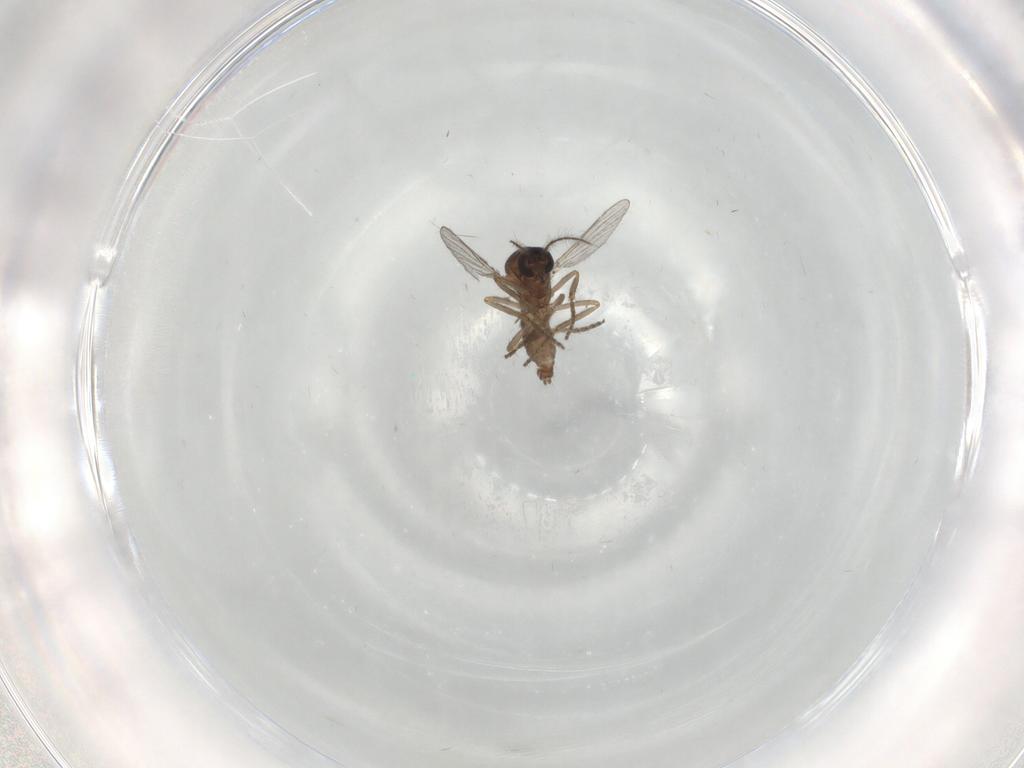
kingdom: Animalia
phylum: Arthropoda
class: Insecta
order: Diptera
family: Ceratopogonidae
